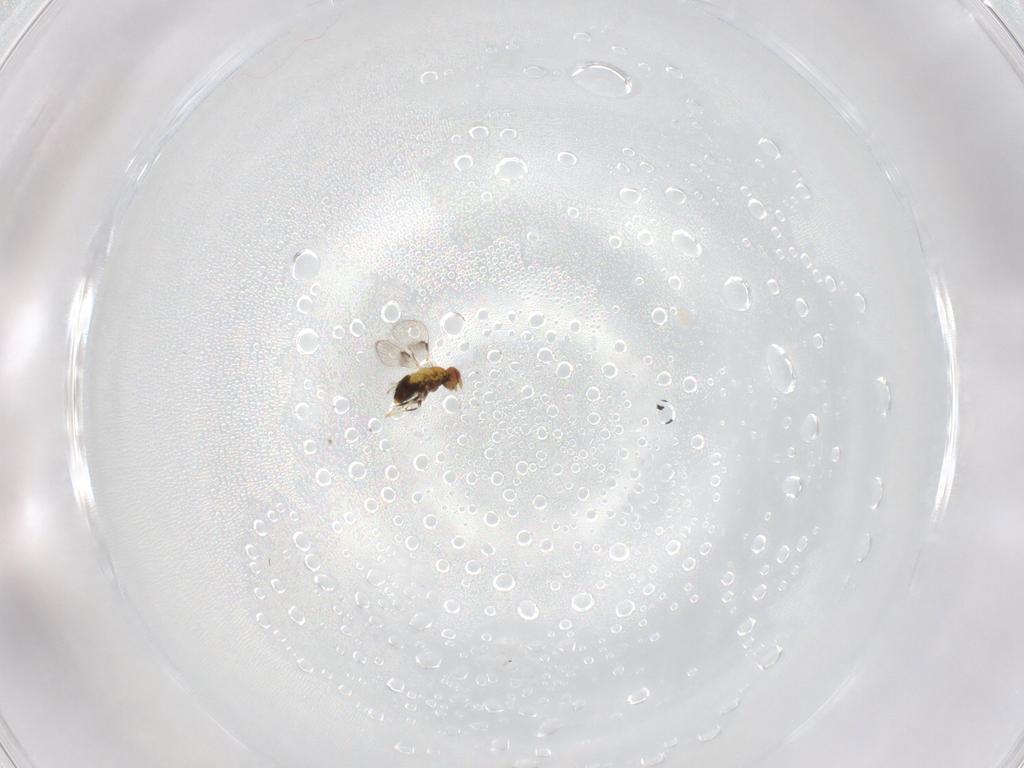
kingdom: Animalia
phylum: Arthropoda
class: Insecta
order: Hymenoptera
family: Trichogrammatidae
